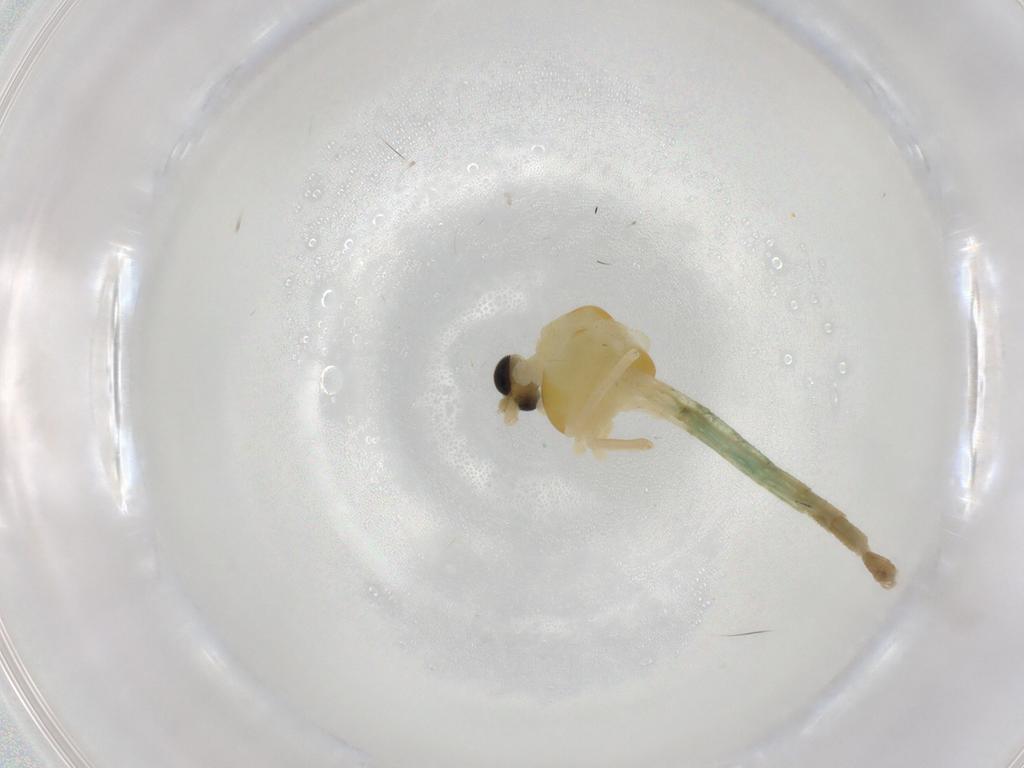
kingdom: Animalia
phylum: Arthropoda
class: Insecta
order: Diptera
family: Chironomidae
